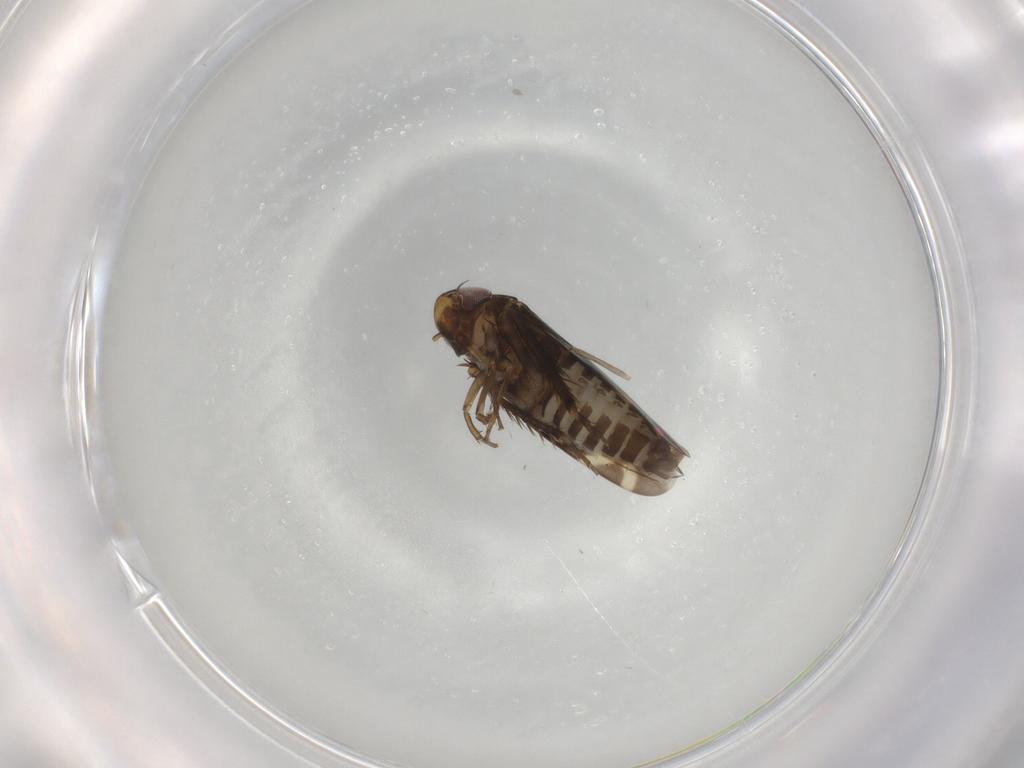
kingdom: Animalia
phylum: Arthropoda
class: Insecta
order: Hemiptera
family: Cicadellidae
